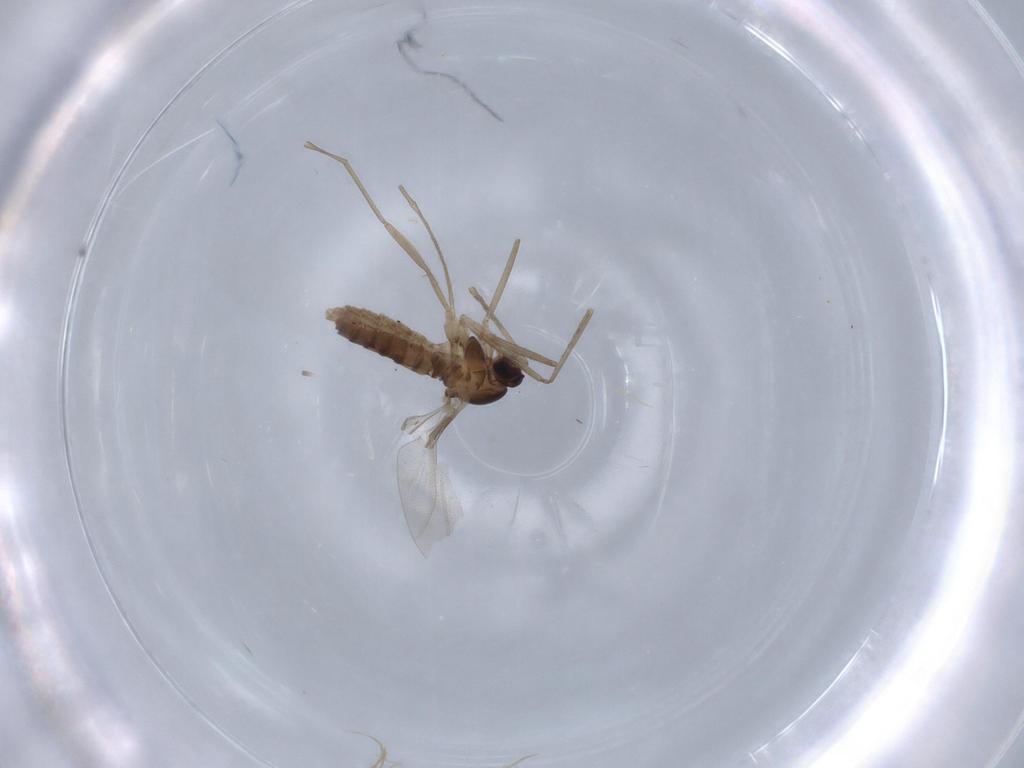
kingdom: Animalia
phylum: Arthropoda
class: Insecta
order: Diptera
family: Cecidomyiidae
